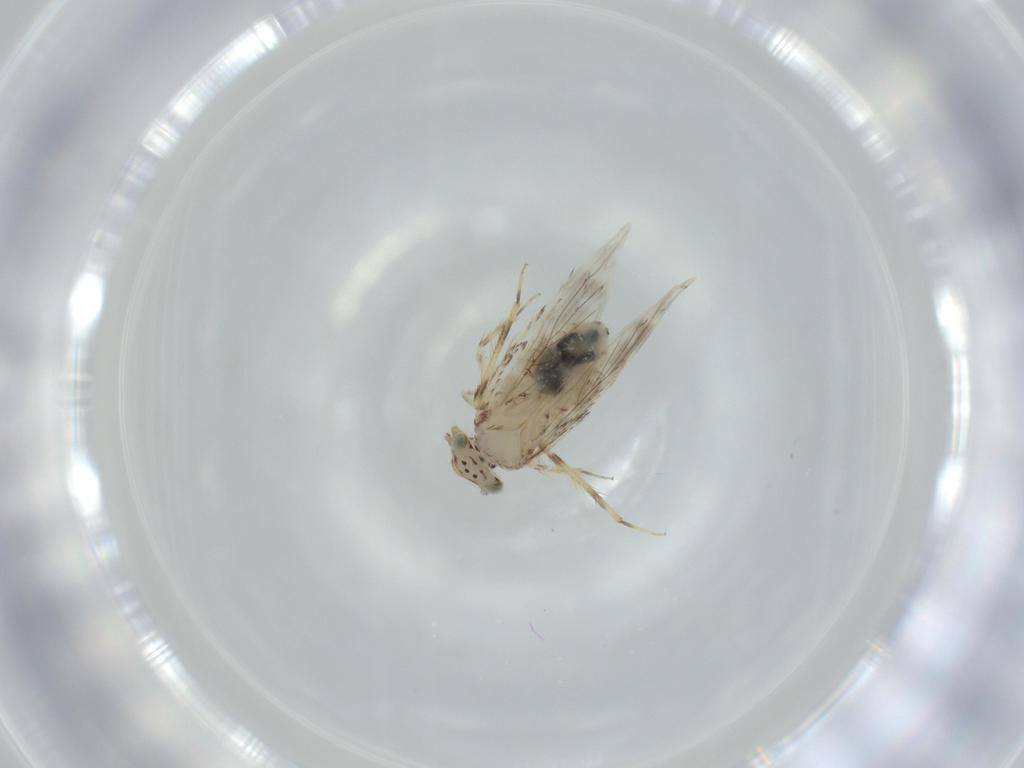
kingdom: Animalia
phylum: Arthropoda
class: Insecta
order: Psocodea
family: Lepidopsocidae
